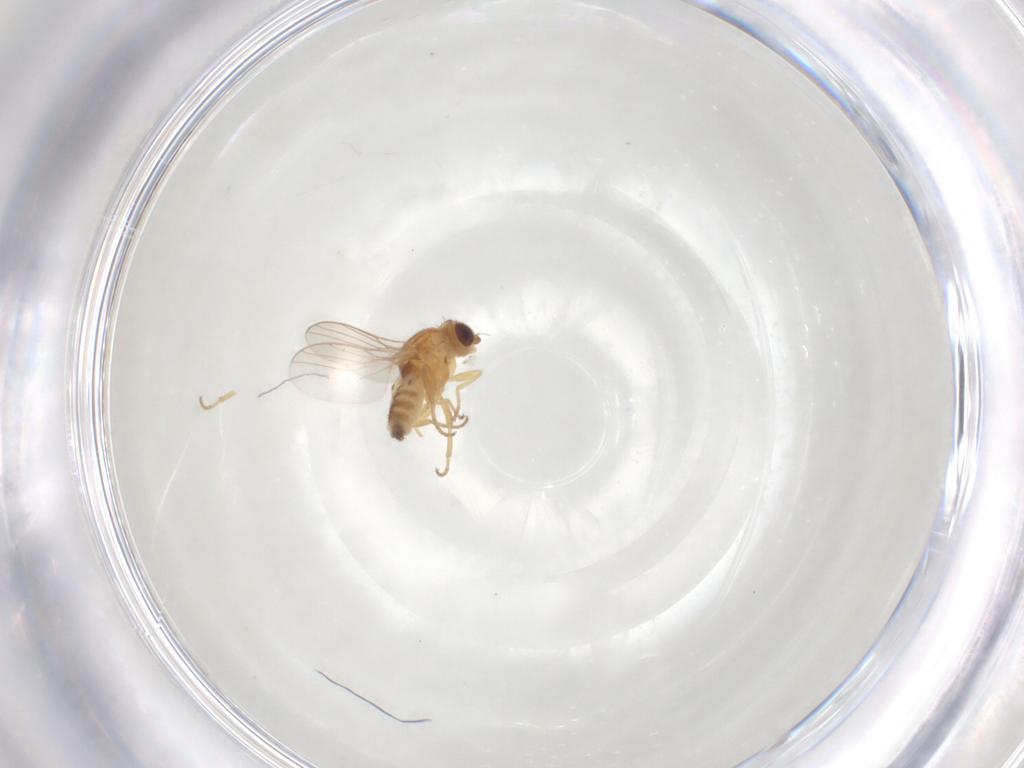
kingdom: Animalia
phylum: Arthropoda
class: Insecta
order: Diptera
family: Chloropidae
